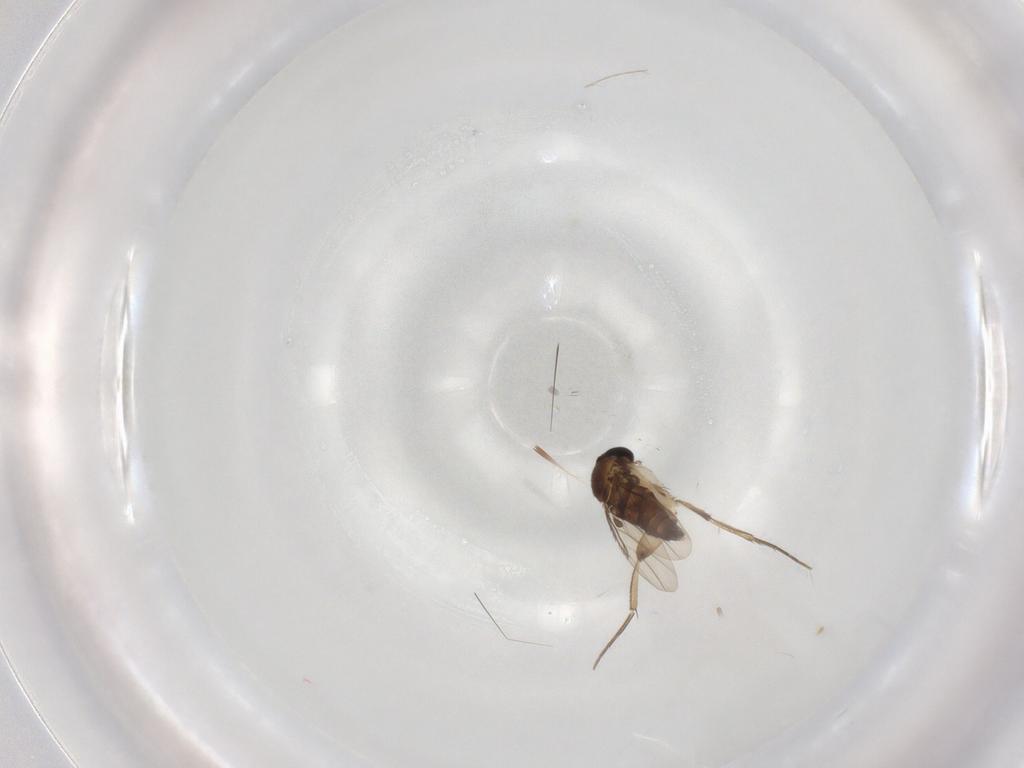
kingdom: Animalia
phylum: Arthropoda
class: Insecta
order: Diptera
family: Phoridae
